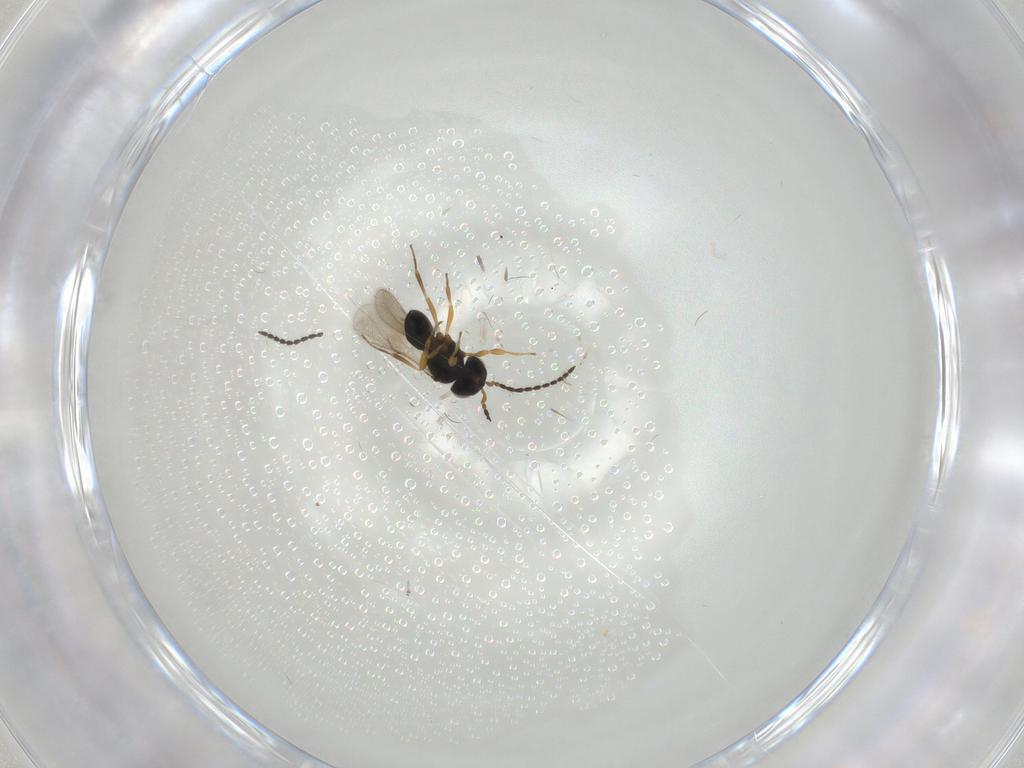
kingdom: Animalia
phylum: Arthropoda
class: Insecta
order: Hymenoptera
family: Scelionidae
